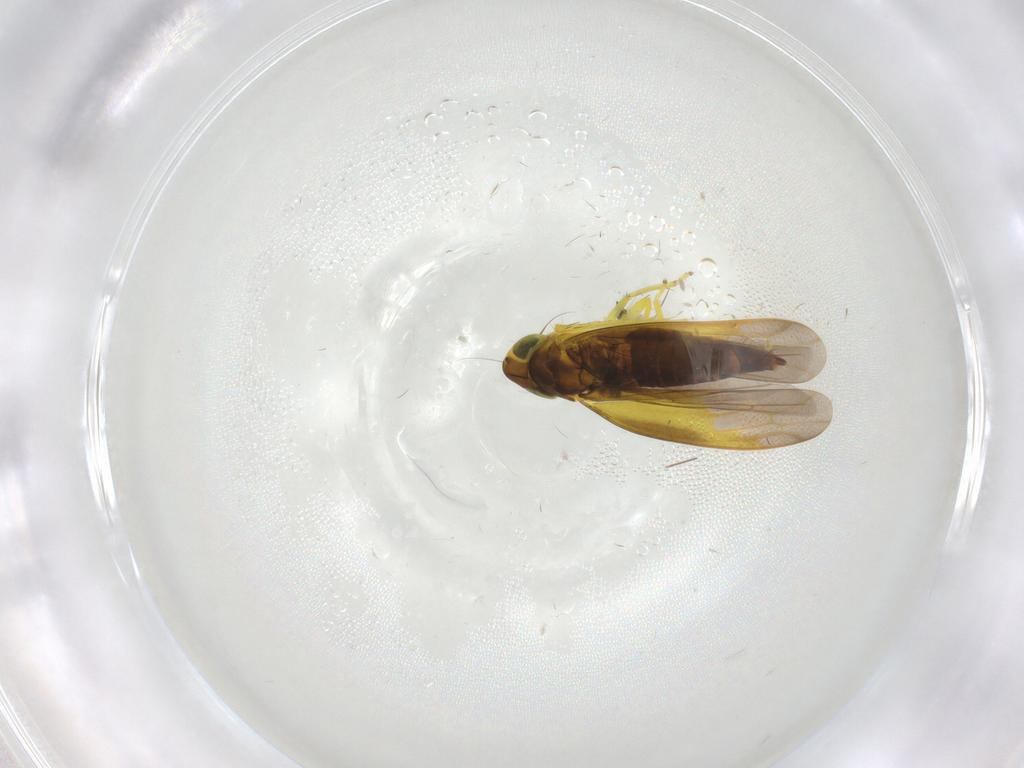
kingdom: Animalia
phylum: Arthropoda
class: Insecta
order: Hemiptera
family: Cicadellidae
